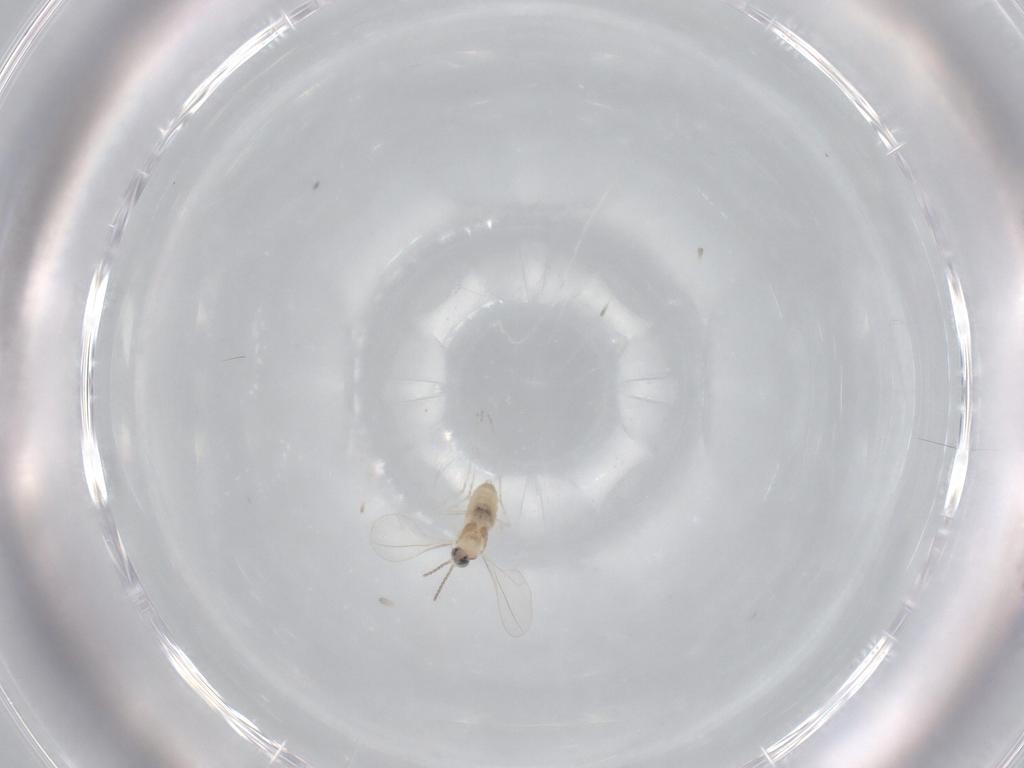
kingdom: Animalia
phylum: Arthropoda
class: Insecta
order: Diptera
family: Cecidomyiidae
